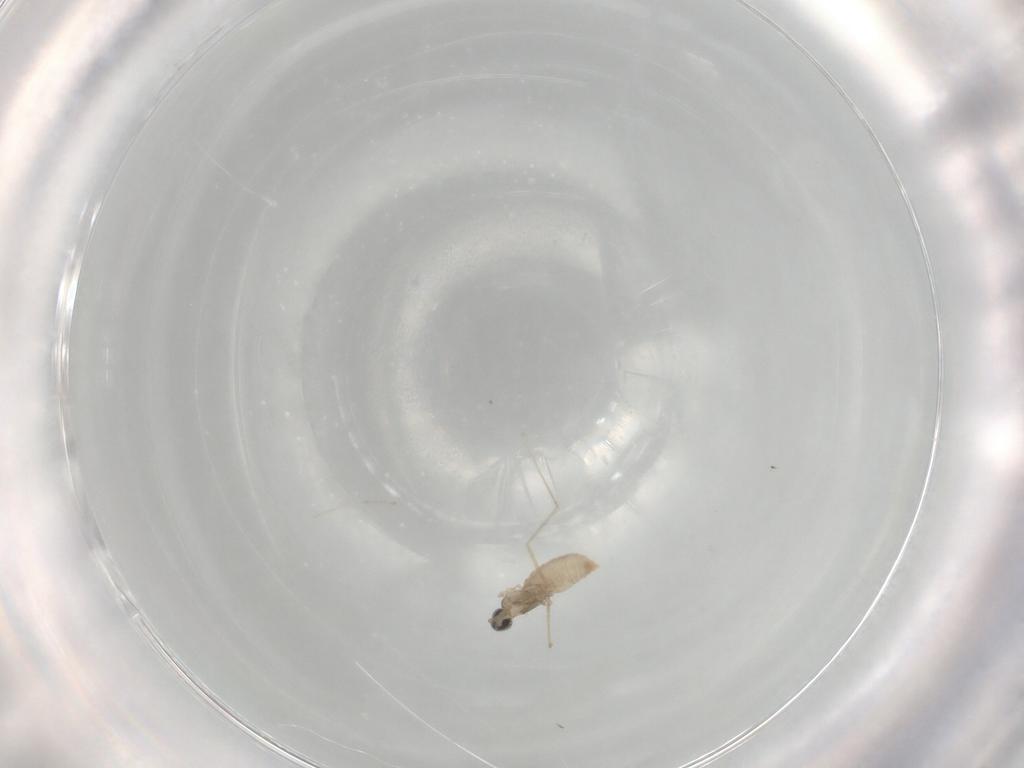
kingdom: Animalia
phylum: Arthropoda
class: Insecta
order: Diptera
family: Cecidomyiidae
